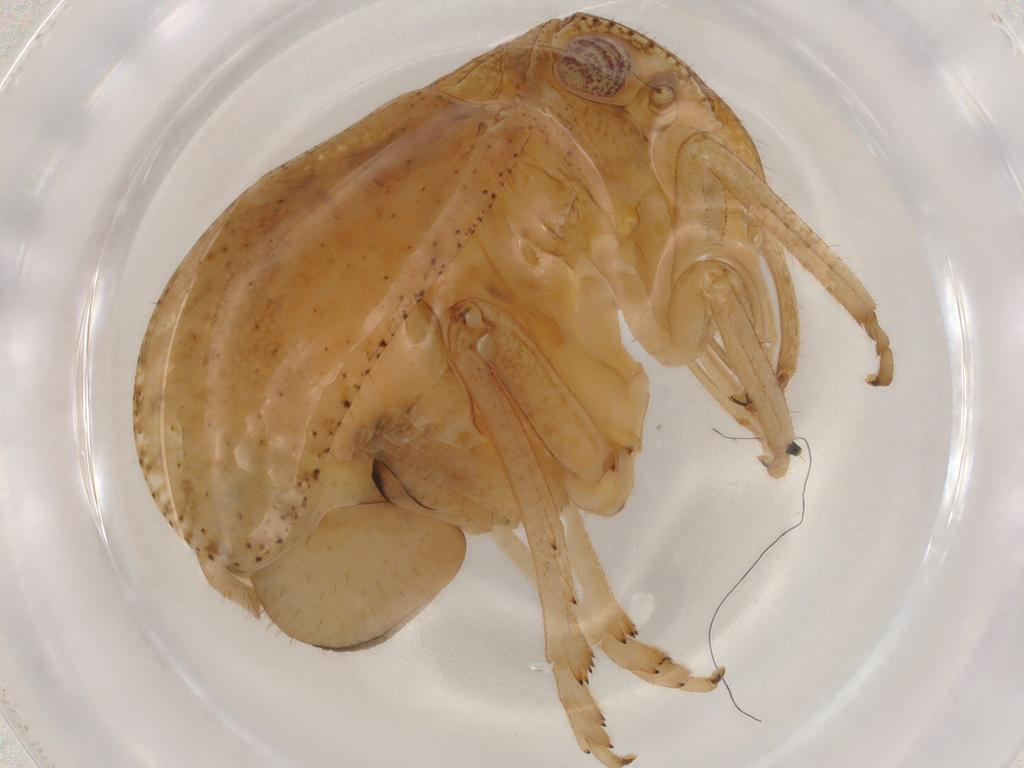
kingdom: Animalia
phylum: Arthropoda
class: Insecta
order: Hemiptera
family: Tropiduchidae
